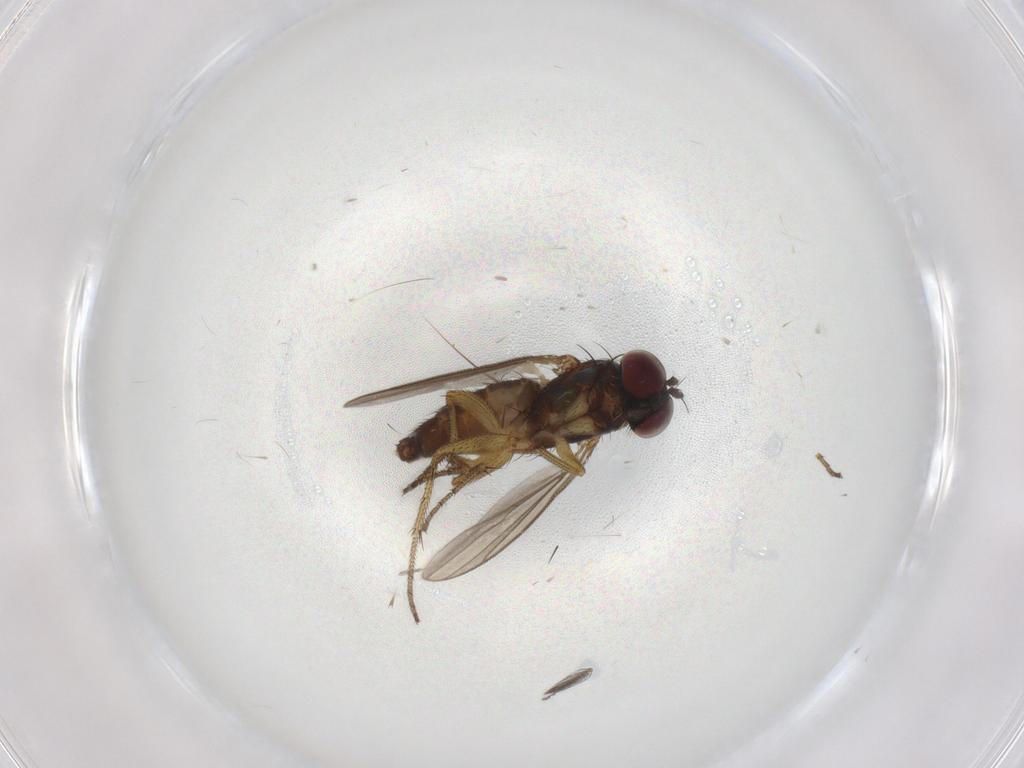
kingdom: Animalia
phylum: Arthropoda
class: Insecta
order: Diptera
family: Dolichopodidae
